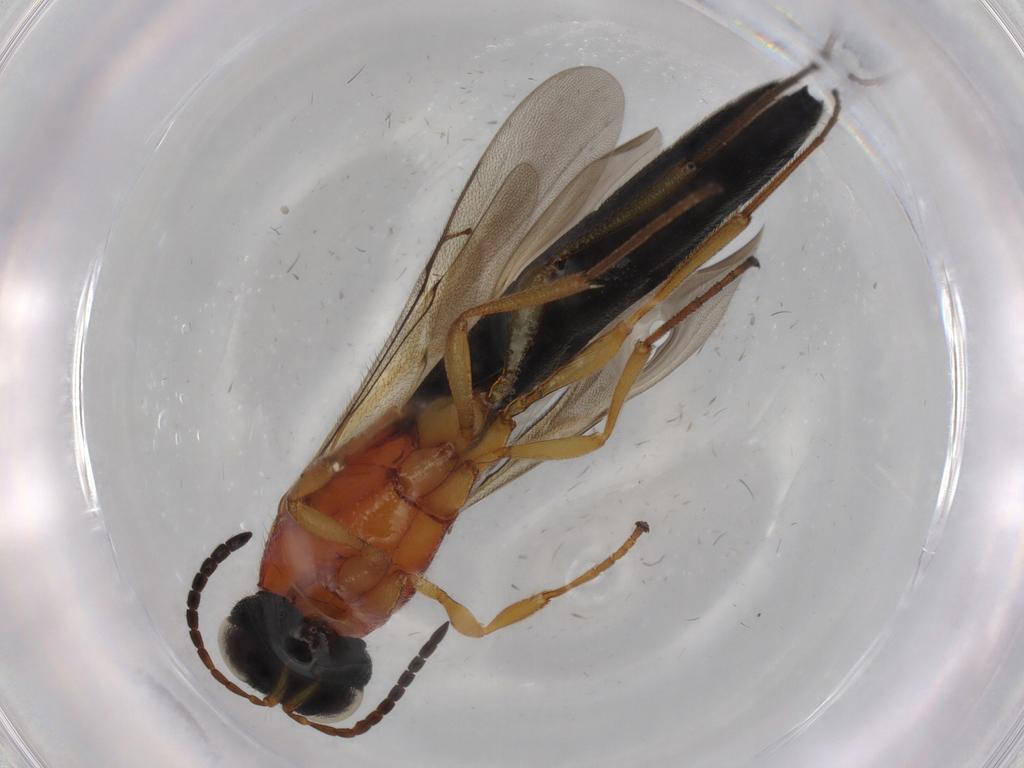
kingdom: Animalia
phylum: Arthropoda
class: Insecta
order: Hymenoptera
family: Scelionidae
